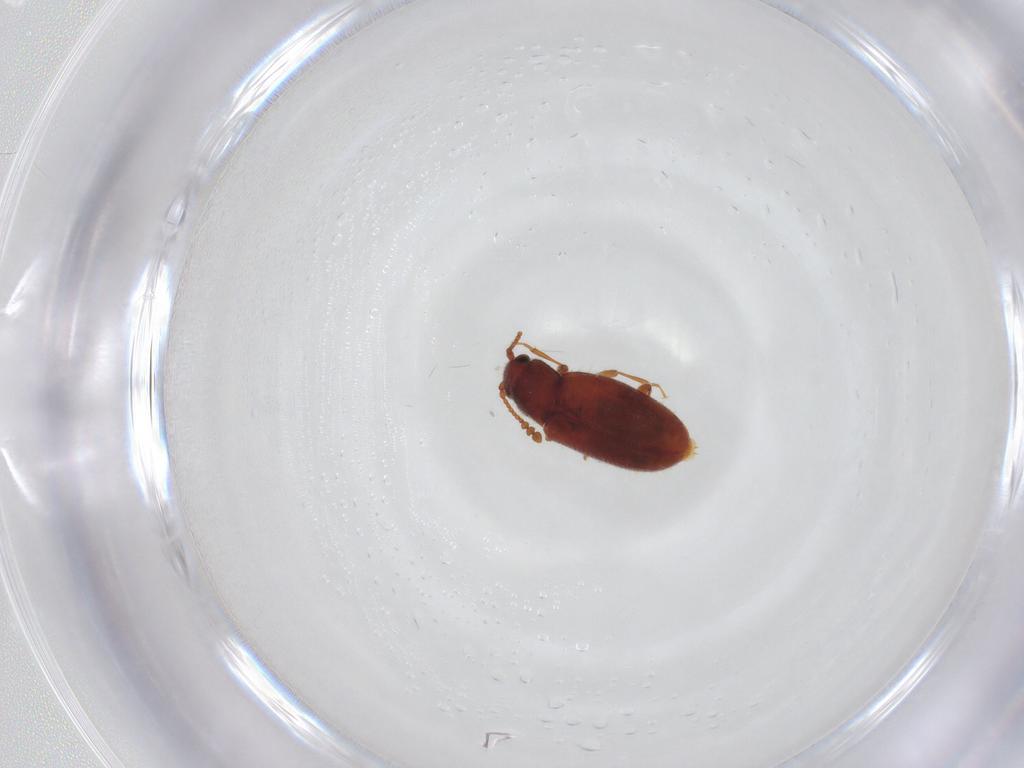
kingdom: Animalia
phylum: Arthropoda
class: Insecta
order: Coleoptera
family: Cryptophagidae
